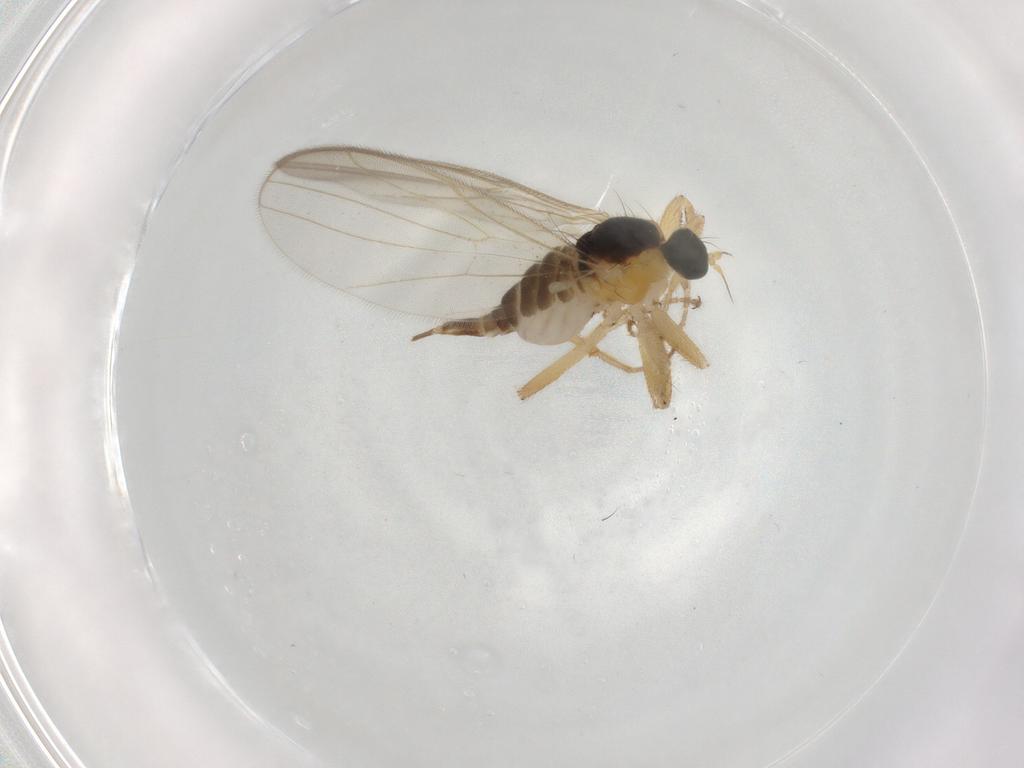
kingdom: Animalia
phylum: Arthropoda
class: Insecta
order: Diptera
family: Hybotidae
